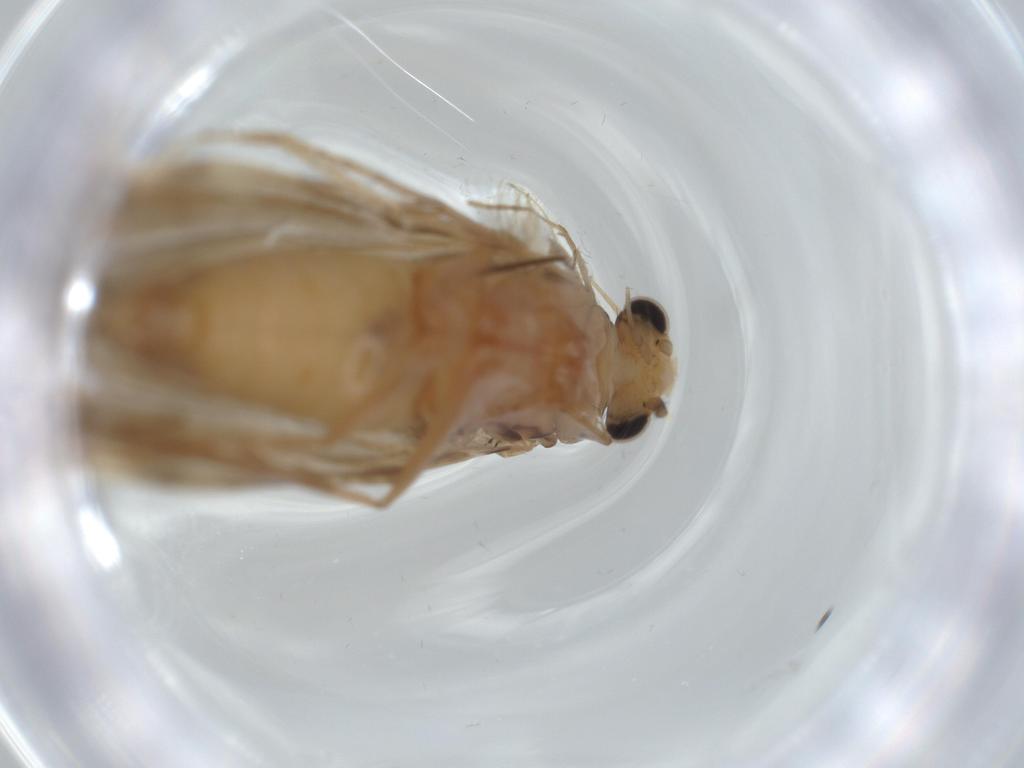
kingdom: Animalia
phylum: Arthropoda
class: Insecta
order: Trichoptera
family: Ecnomidae
